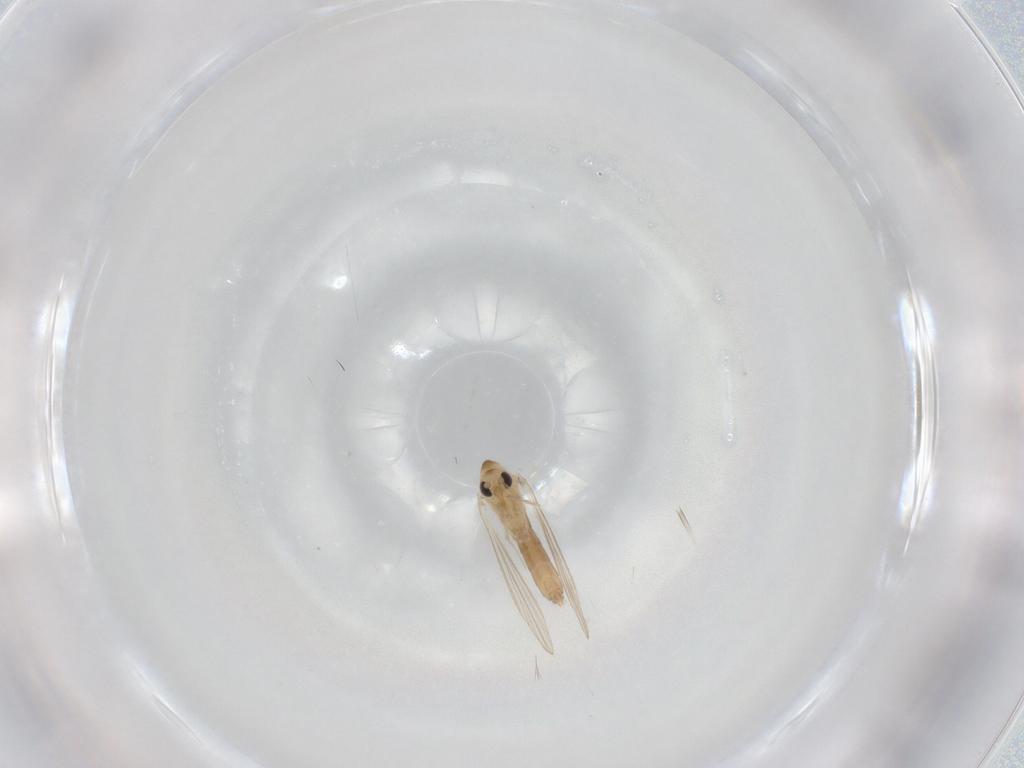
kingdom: Animalia
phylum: Arthropoda
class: Insecta
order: Diptera
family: Psychodidae
